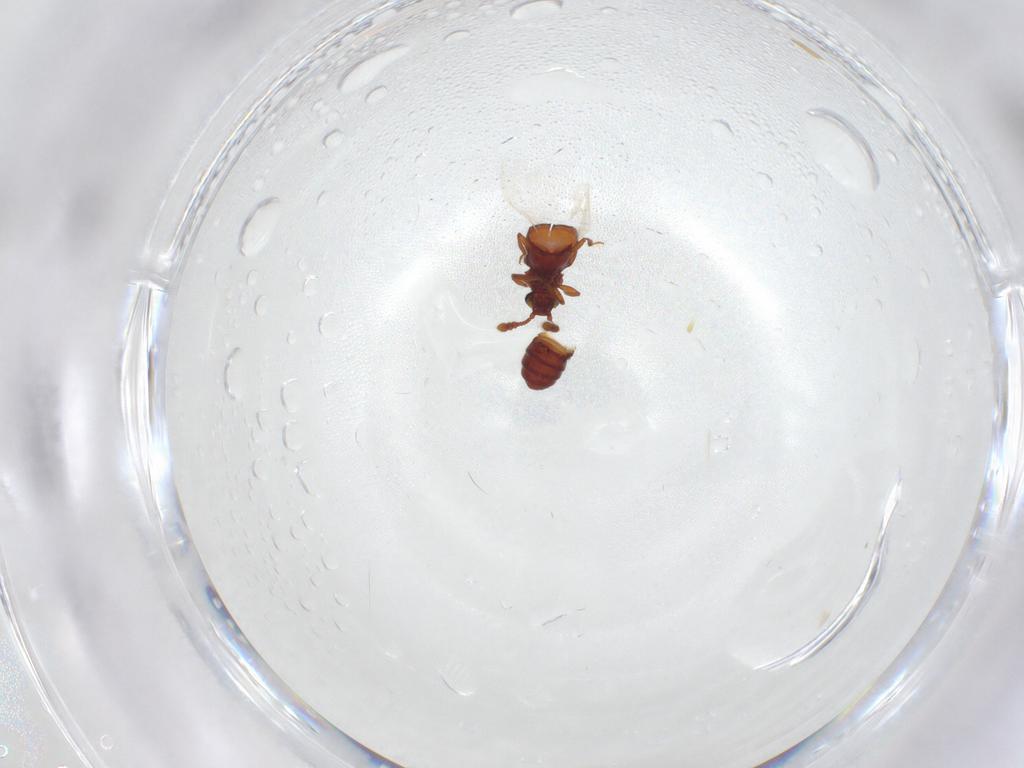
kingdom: Animalia
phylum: Arthropoda
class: Insecta
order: Coleoptera
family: Staphylinidae
